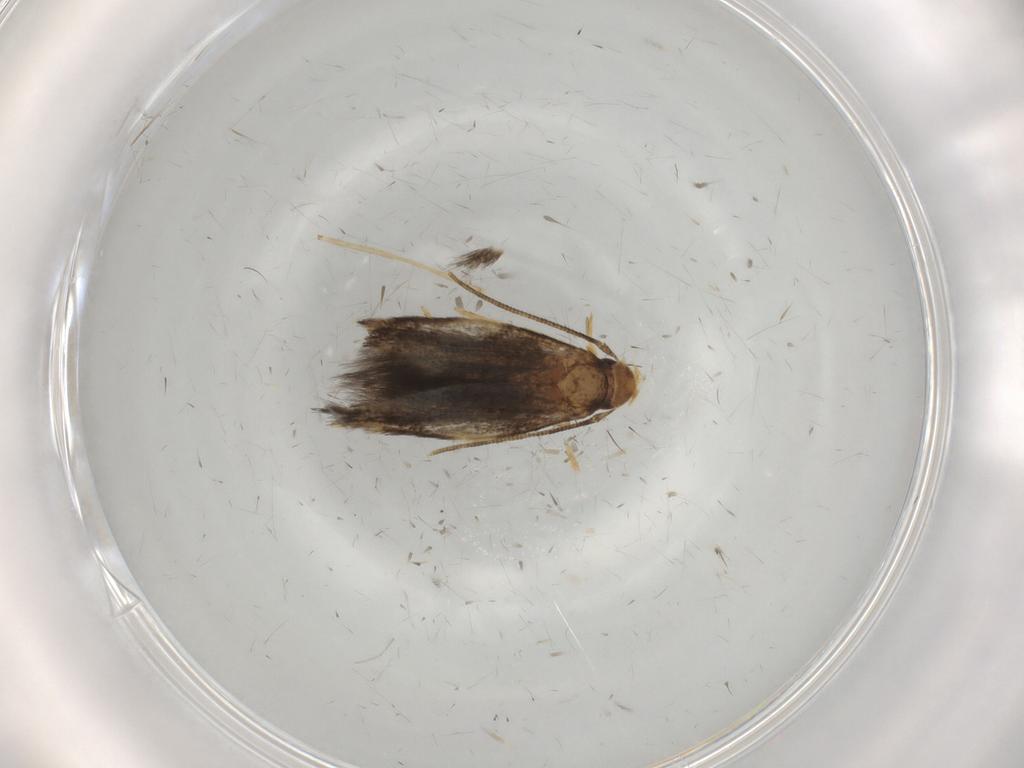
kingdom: Animalia
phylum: Arthropoda
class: Insecta
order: Lepidoptera
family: Gelechiidae
